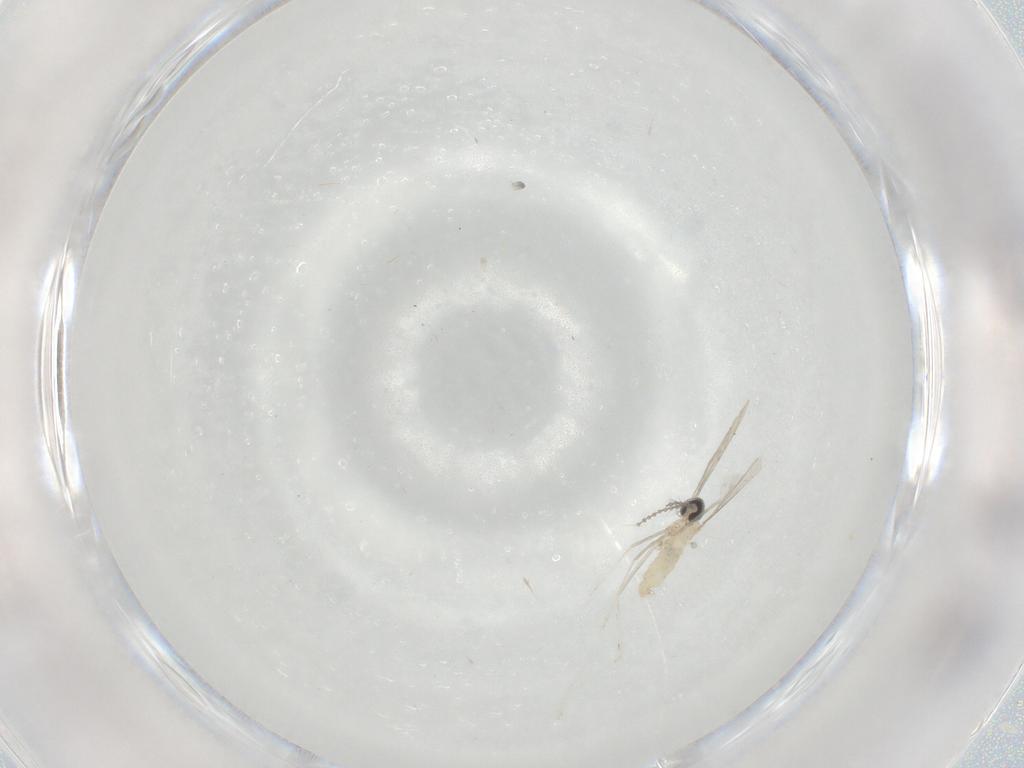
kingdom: Animalia
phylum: Arthropoda
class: Insecta
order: Diptera
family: Cecidomyiidae
